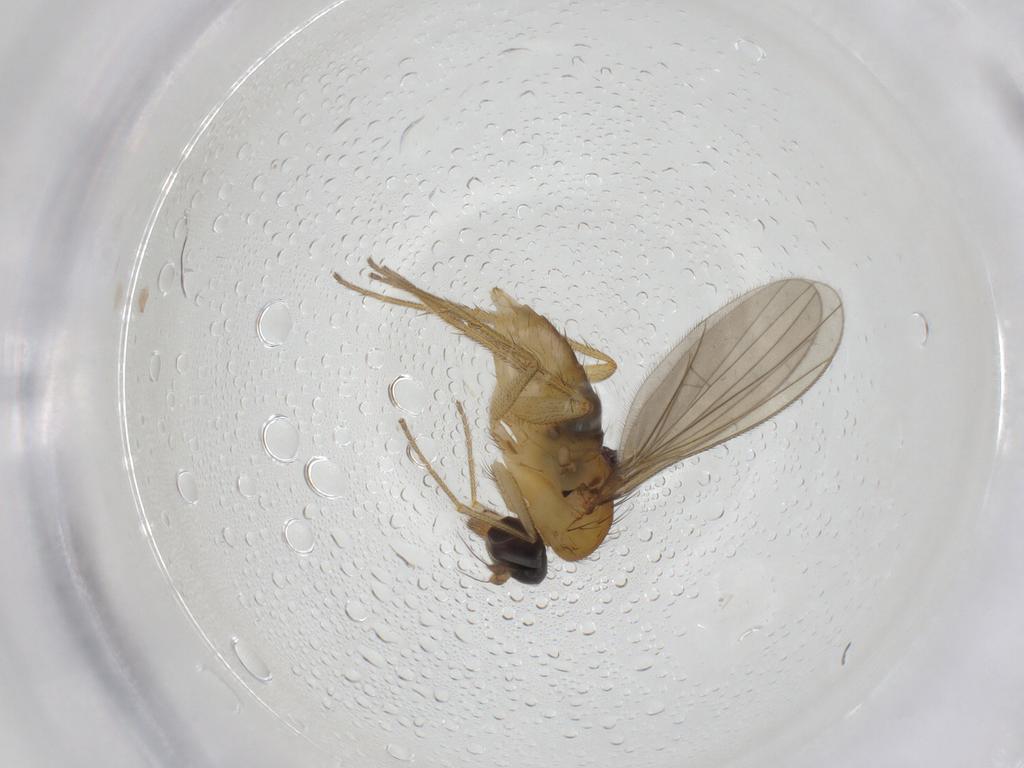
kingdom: Animalia
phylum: Arthropoda
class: Insecta
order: Diptera
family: Dolichopodidae
